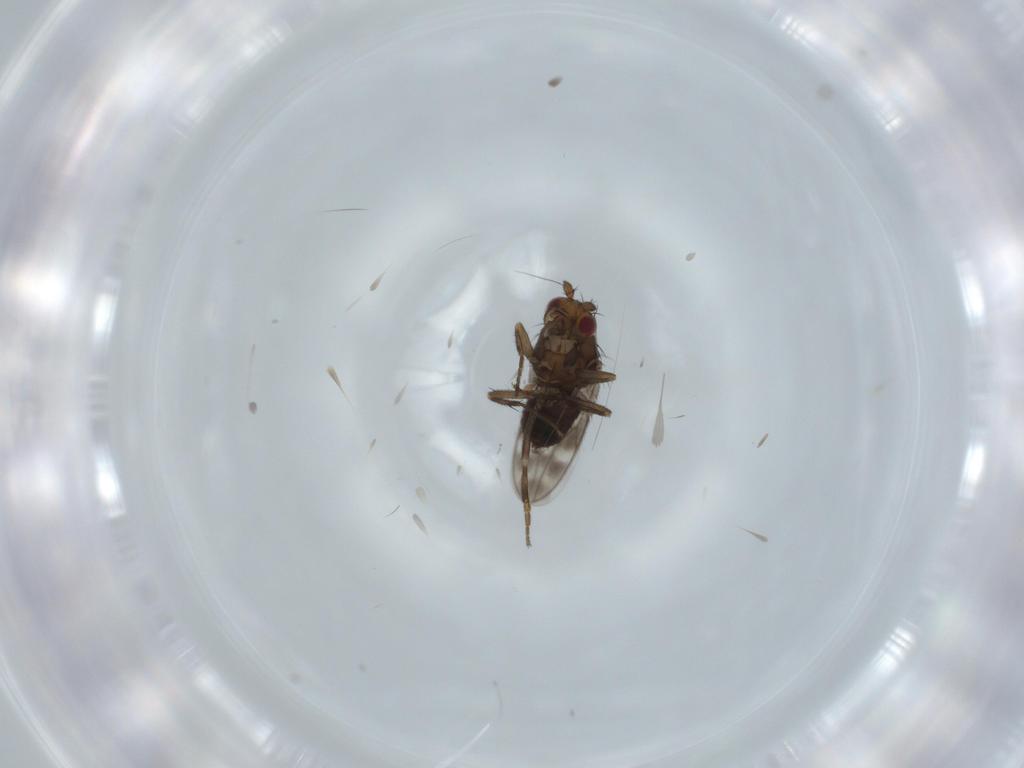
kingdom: Animalia
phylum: Arthropoda
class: Insecta
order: Diptera
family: Sphaeroceridae
